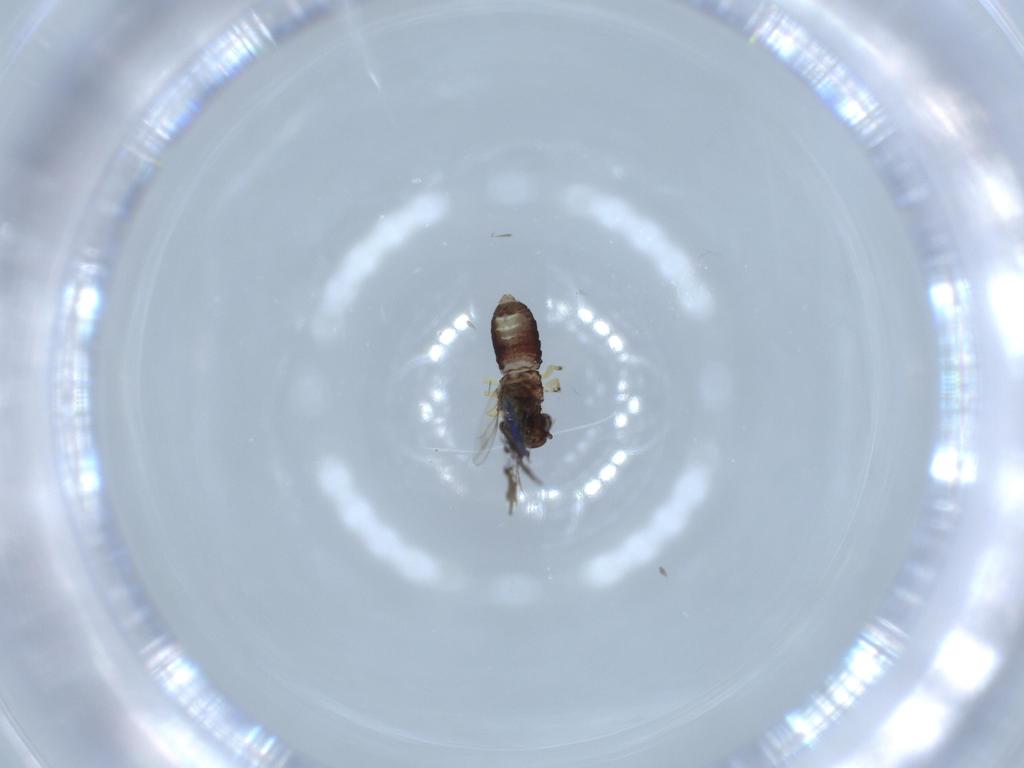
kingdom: Animalia
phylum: Arthropoda
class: Insecta
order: Psocodea
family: Psoquillidae
